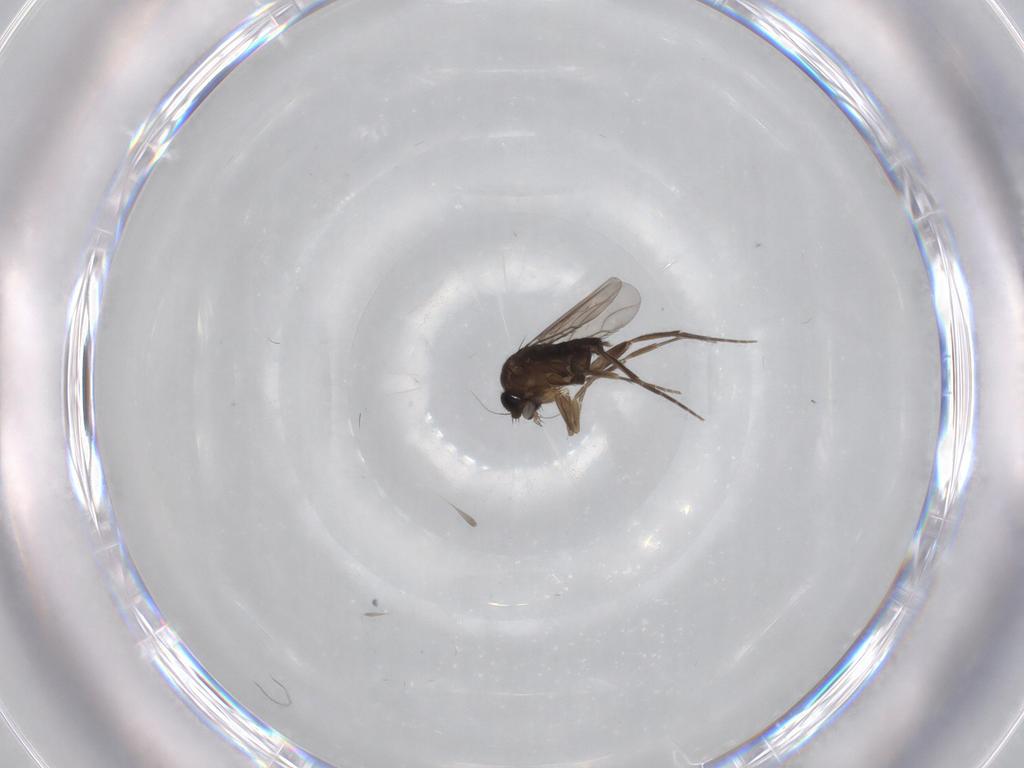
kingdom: Animalia
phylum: Arthropoda
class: Insecta
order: Diptera
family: Phoridae
